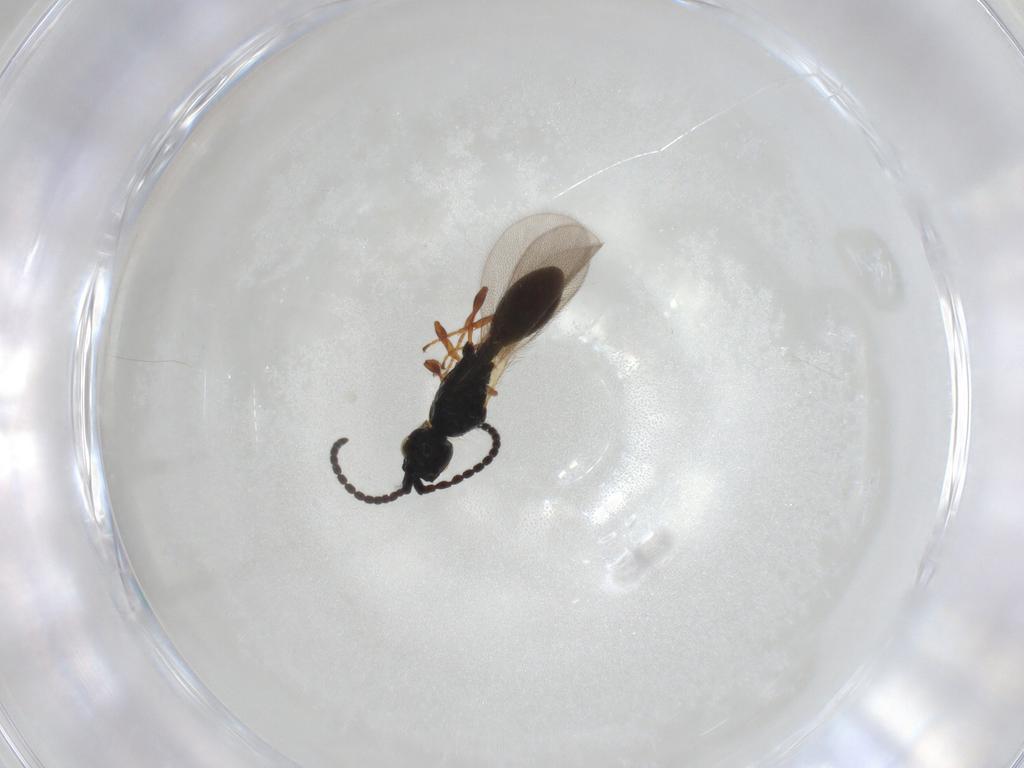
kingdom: Animalia
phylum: Arthropoda
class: Insecta
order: Hymenoptera
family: Diapriidae
